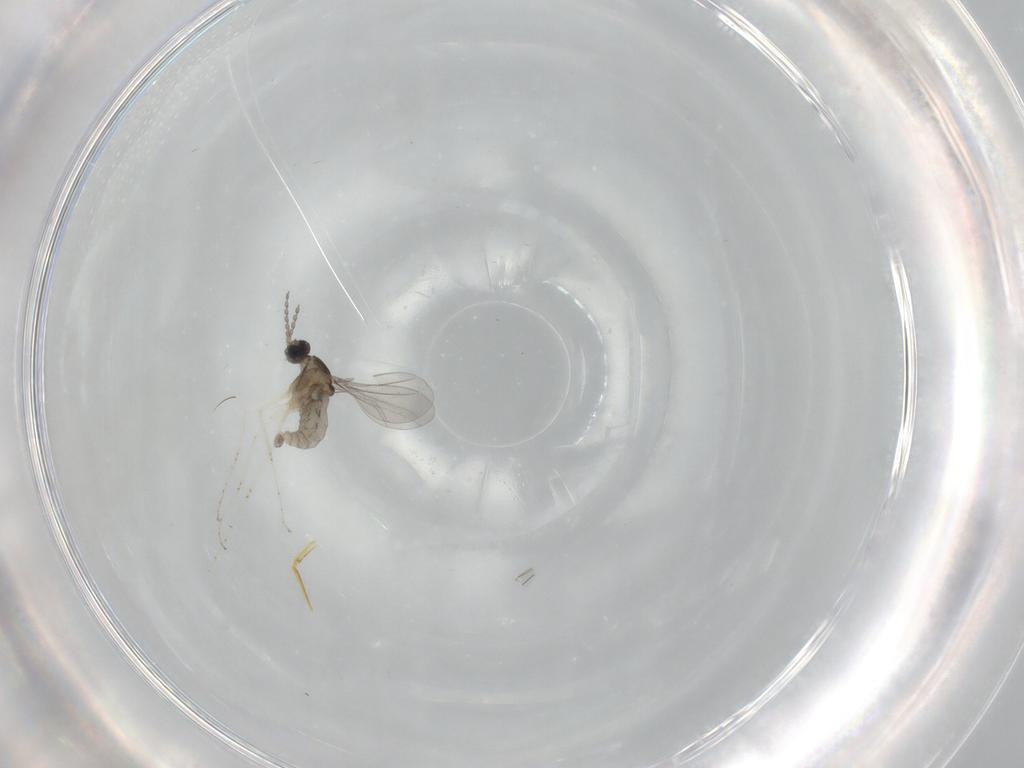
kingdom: Animalia
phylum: Arthropoda
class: Insecta
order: Diptera
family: Cecidomyiidae
